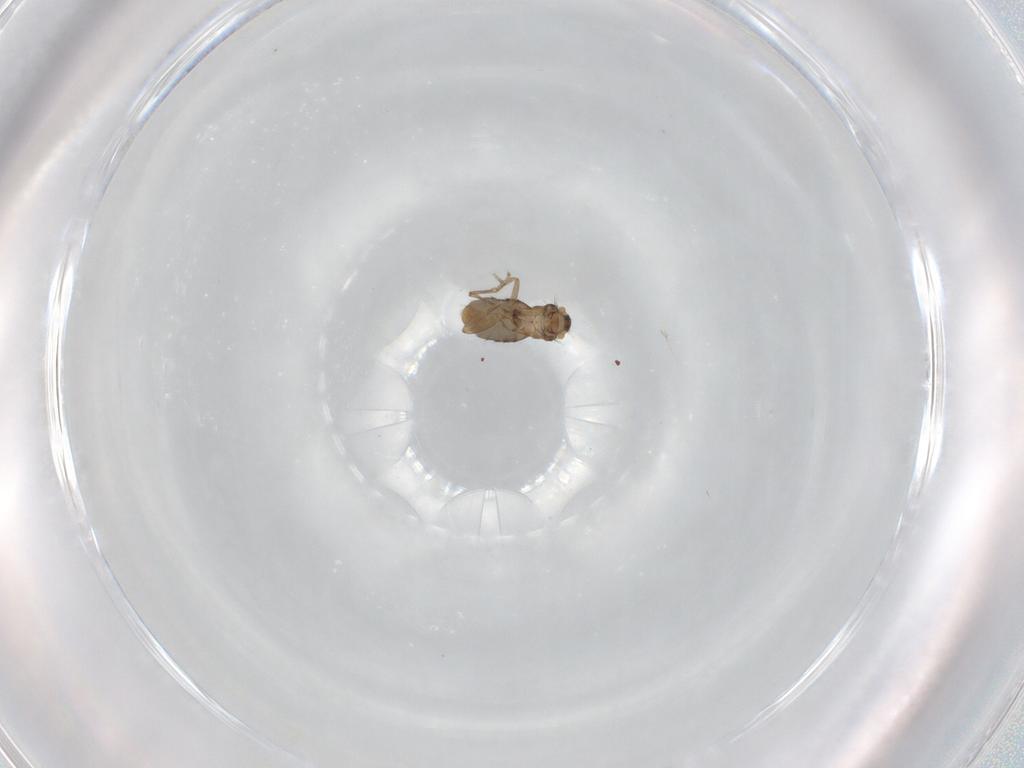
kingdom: Animalia
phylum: Arthropoda
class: Insecta
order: Diptera
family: Phoridae
